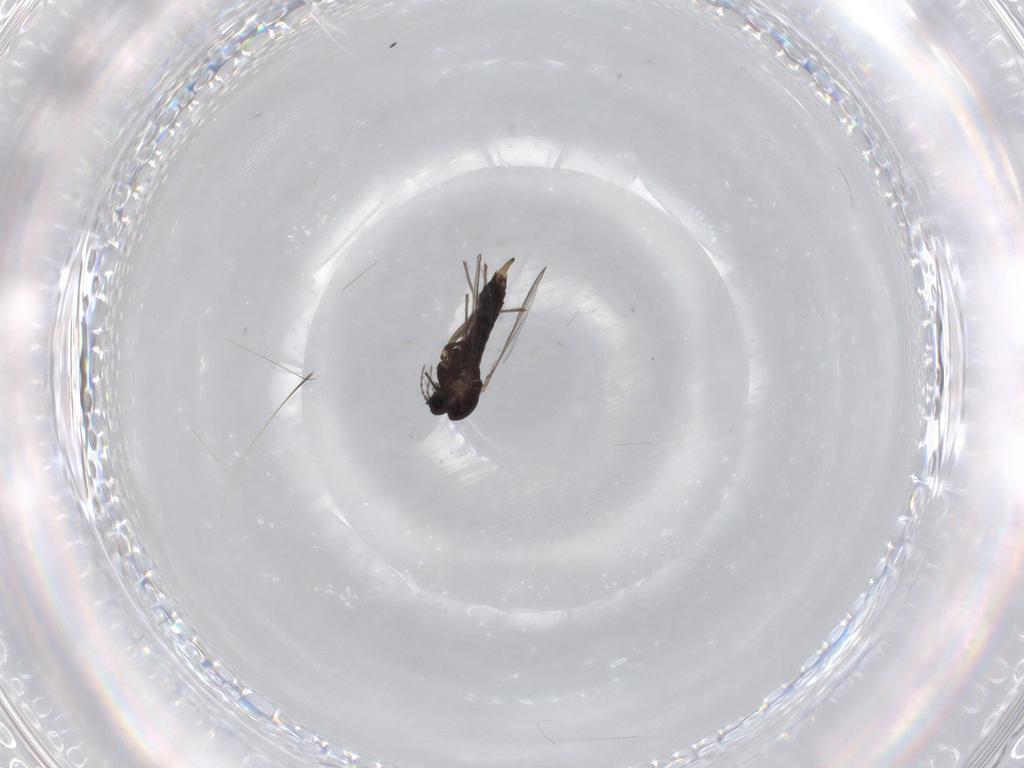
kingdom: Animalia
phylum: Arthropoda
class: Insecta
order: Diptera
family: Chironomidae
